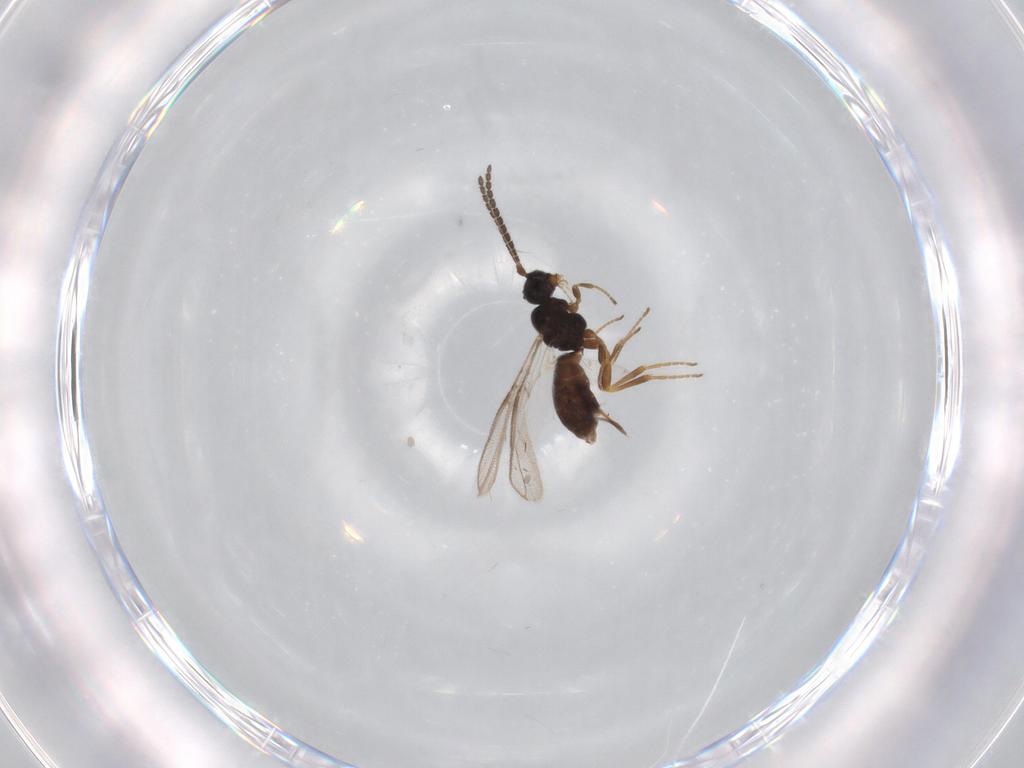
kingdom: Animalia
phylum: Arthropoda
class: Insecta
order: Hymenoptera
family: Braconidae
